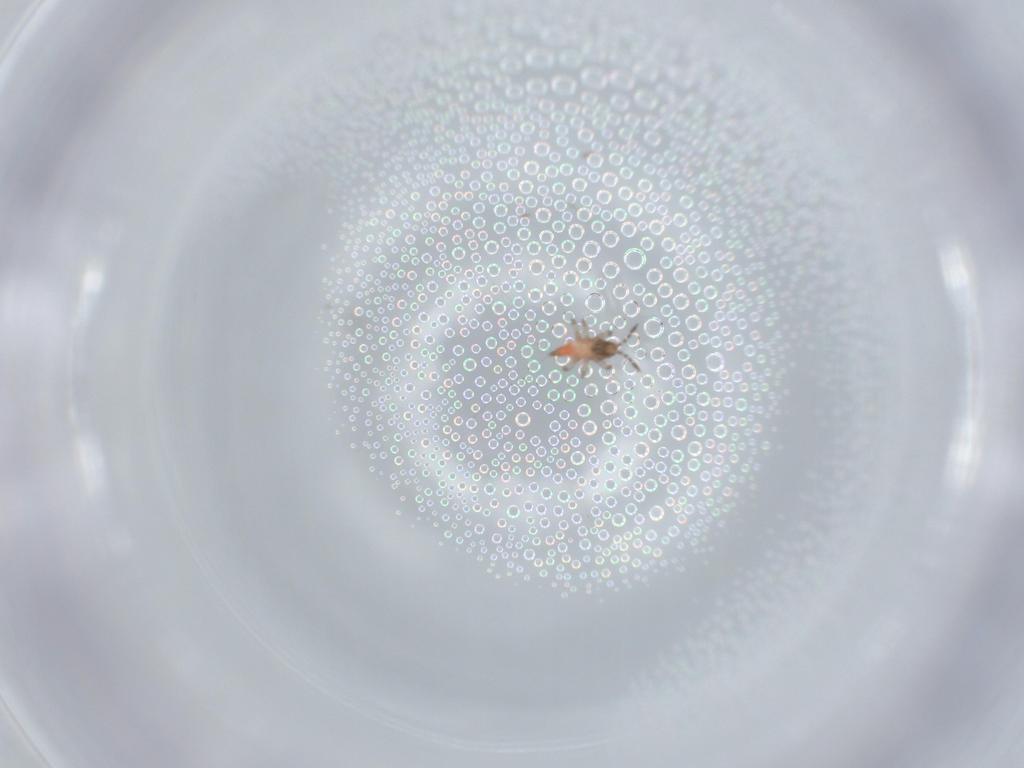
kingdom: Animalia
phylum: Arthropoda
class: Insecta
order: Thysanoptera
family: Phlaeothripidae
